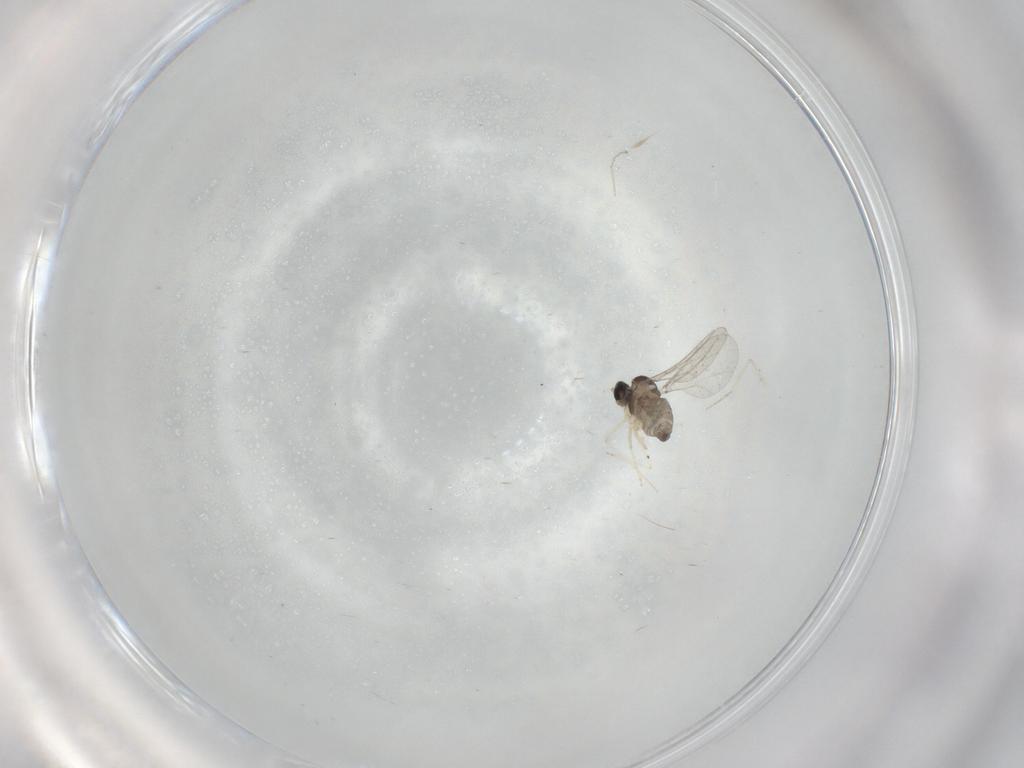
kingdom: Animalia
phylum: Arthropoda
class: Insecta
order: Diptera
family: Cecidomyiidae
